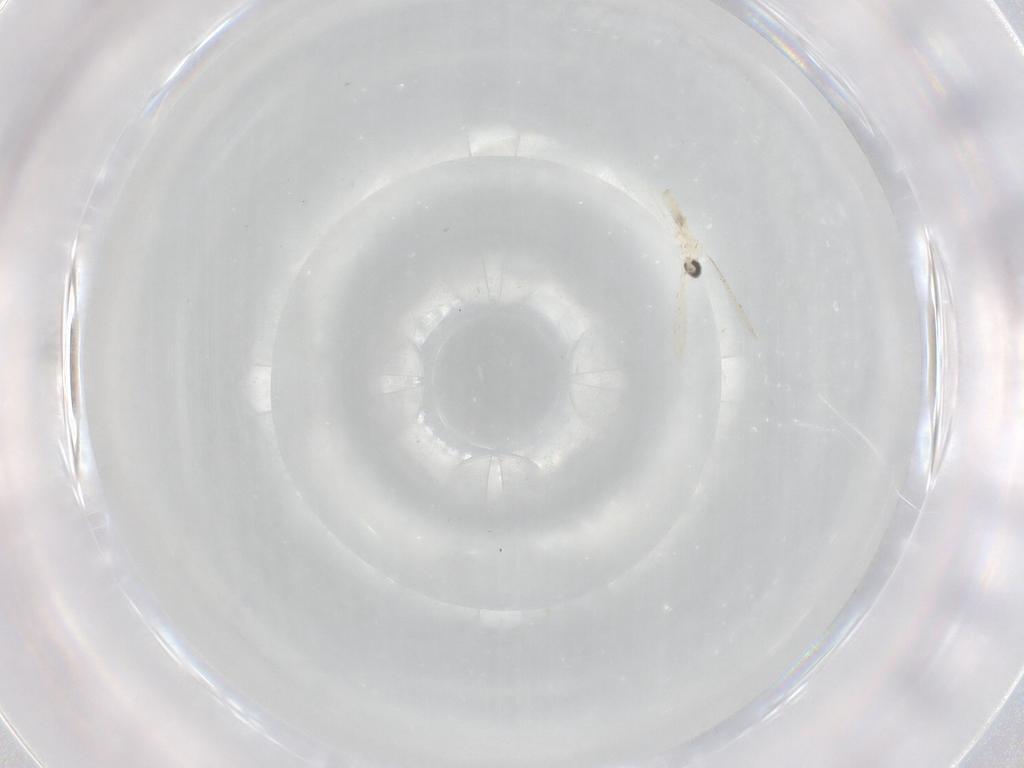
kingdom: Animalia
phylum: Arthropoda
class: Insecta
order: Diptera
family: Cecidomyiidae
